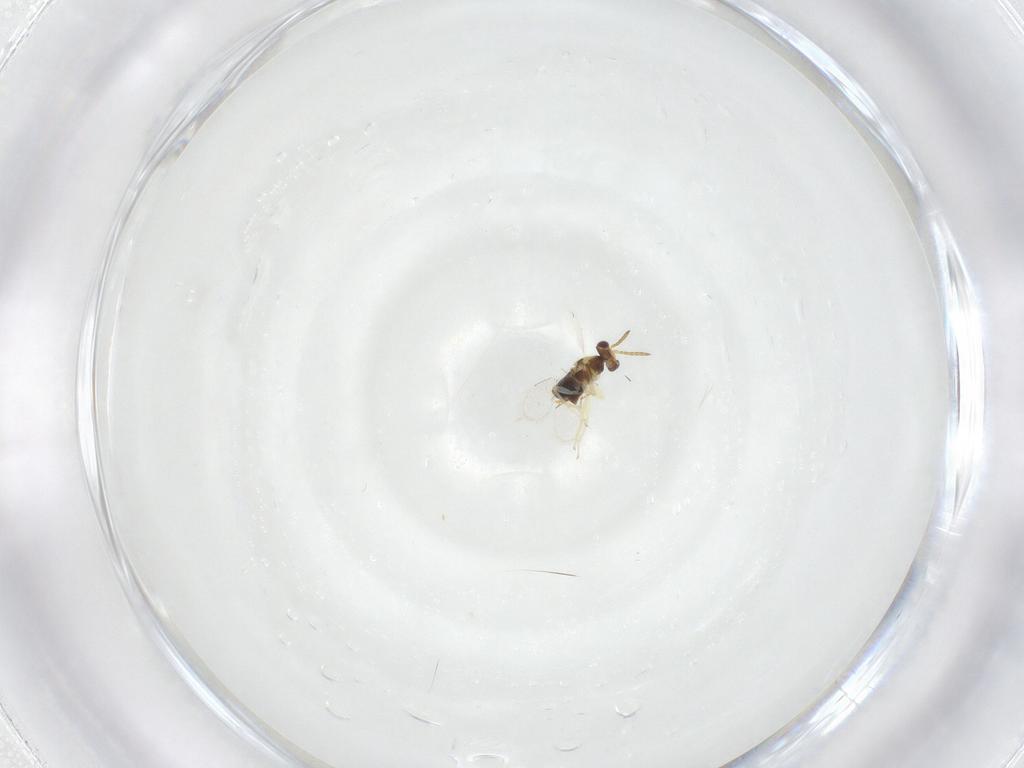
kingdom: Animalia
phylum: Arthropoda
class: Insecta
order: Hymenoptera
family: Aphelinidae
